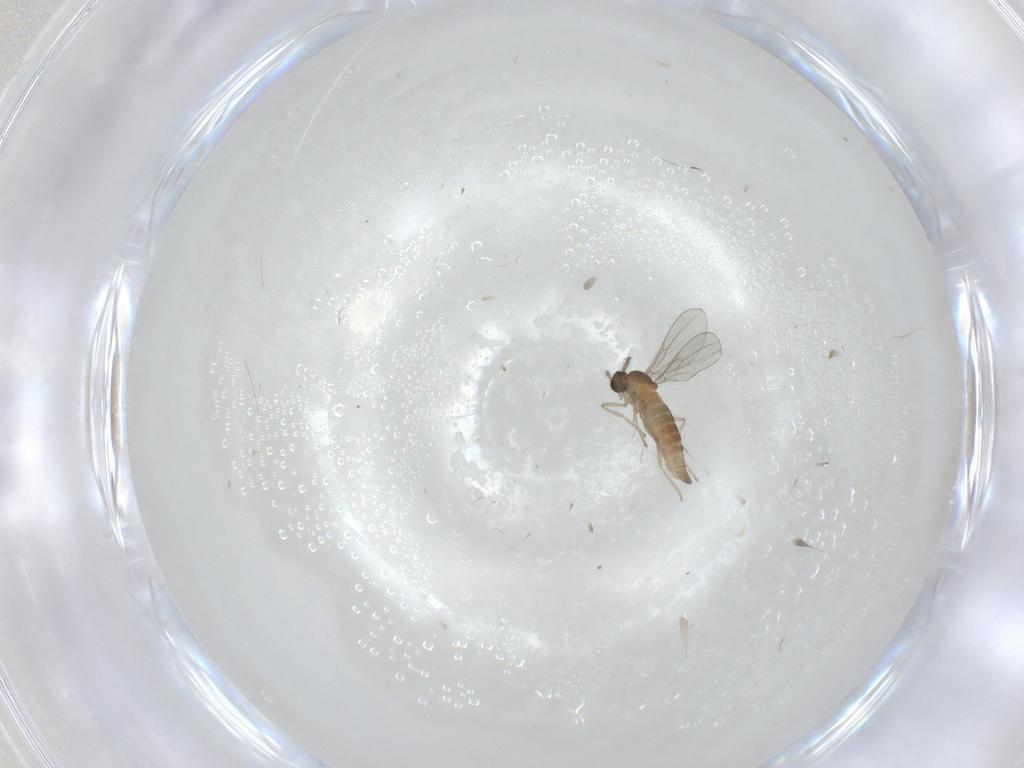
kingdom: Animalia
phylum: Arthropoda
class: Insecta
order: Diptera
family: Cecidomyiidae
